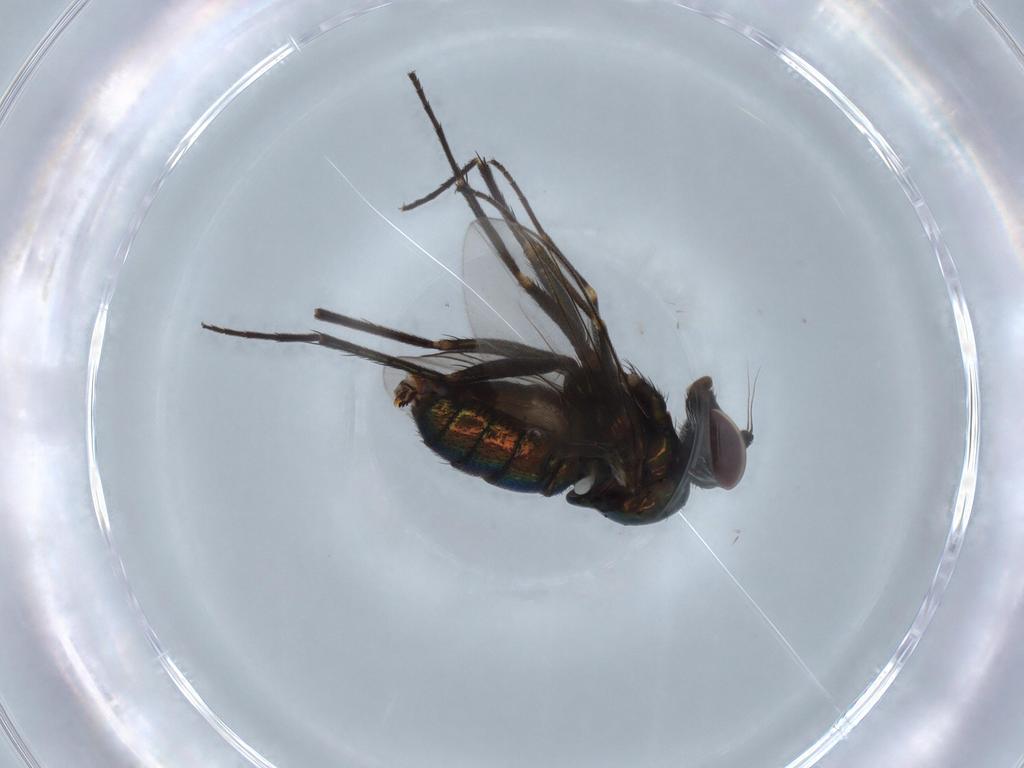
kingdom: Animalia
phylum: Arthropoda
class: Insecta
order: Diptera
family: Dolichopodidae
